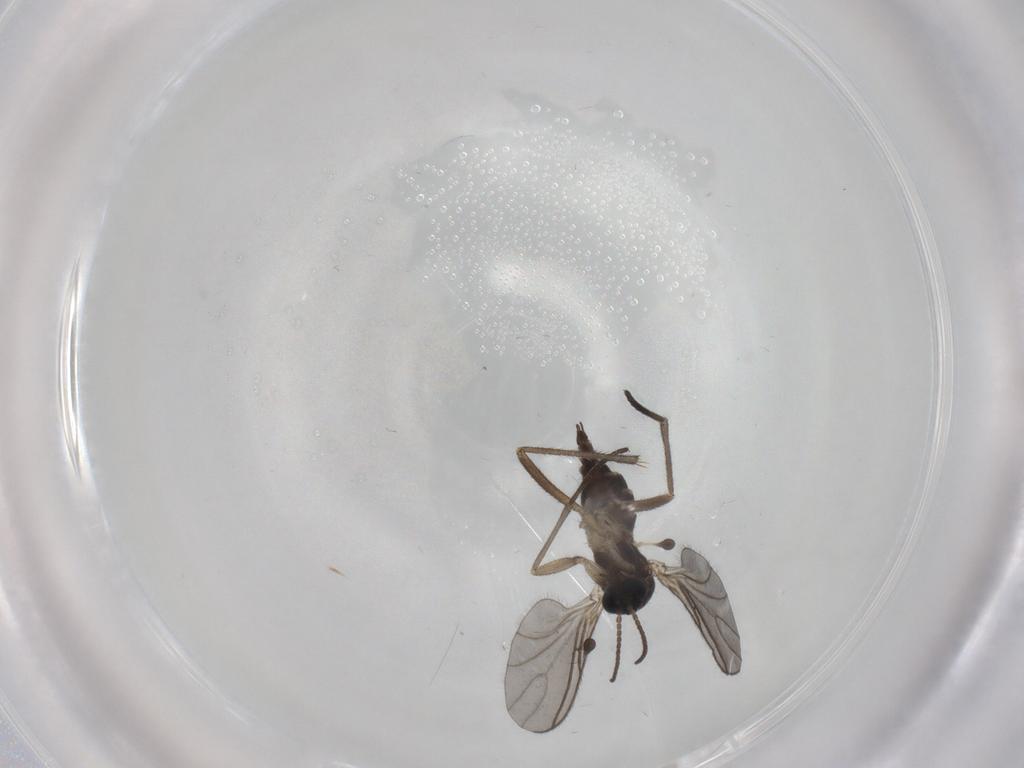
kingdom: Animalia
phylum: Arthropoda
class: Insecta
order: Diptera
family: Sciaridae
